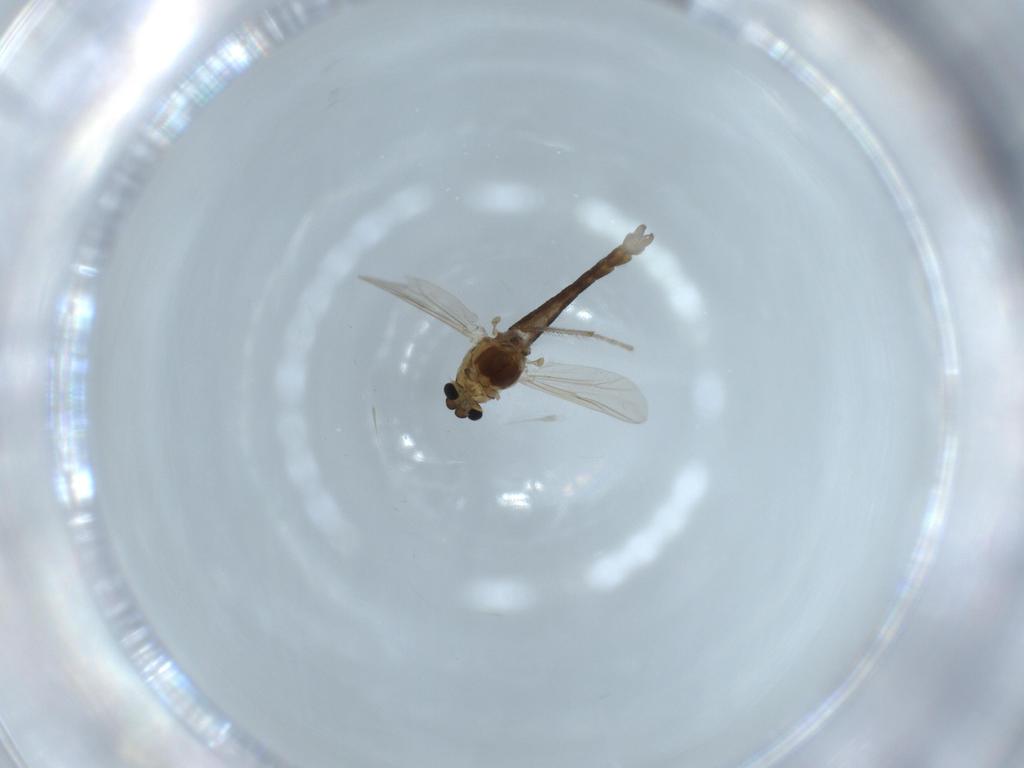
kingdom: Animalia
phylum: Arthropoda
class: Insecta
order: Diptera
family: Chironomidae
